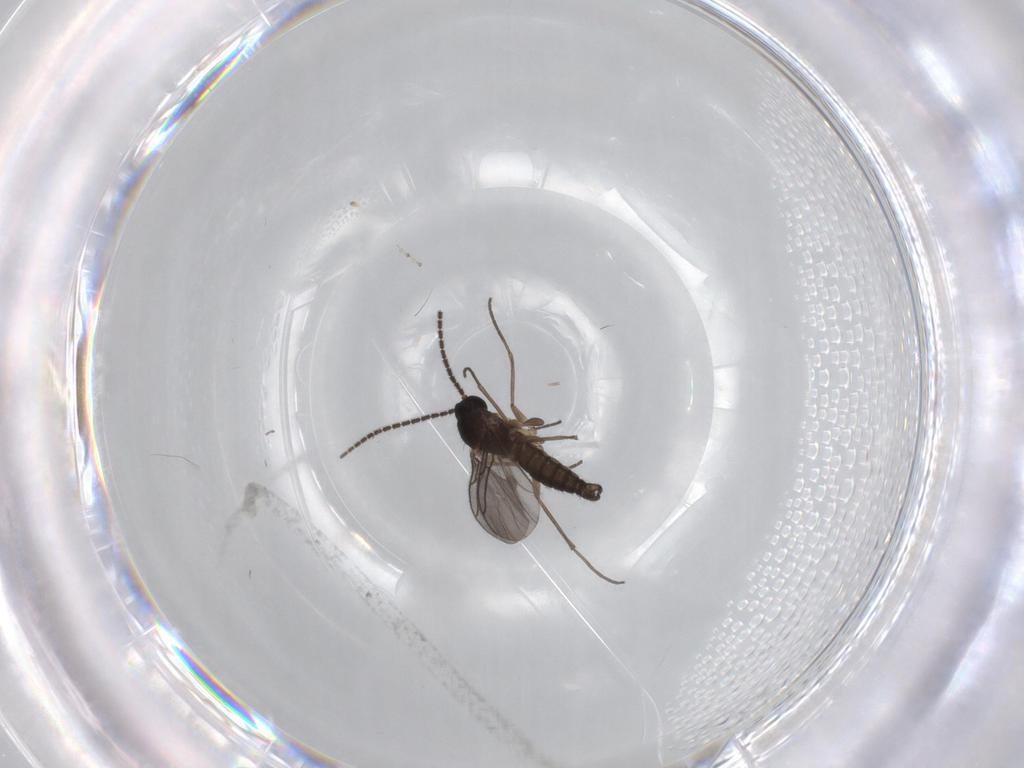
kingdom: Animalia
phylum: Arthropoda
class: Insecta
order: Diptera
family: Sciaridae
